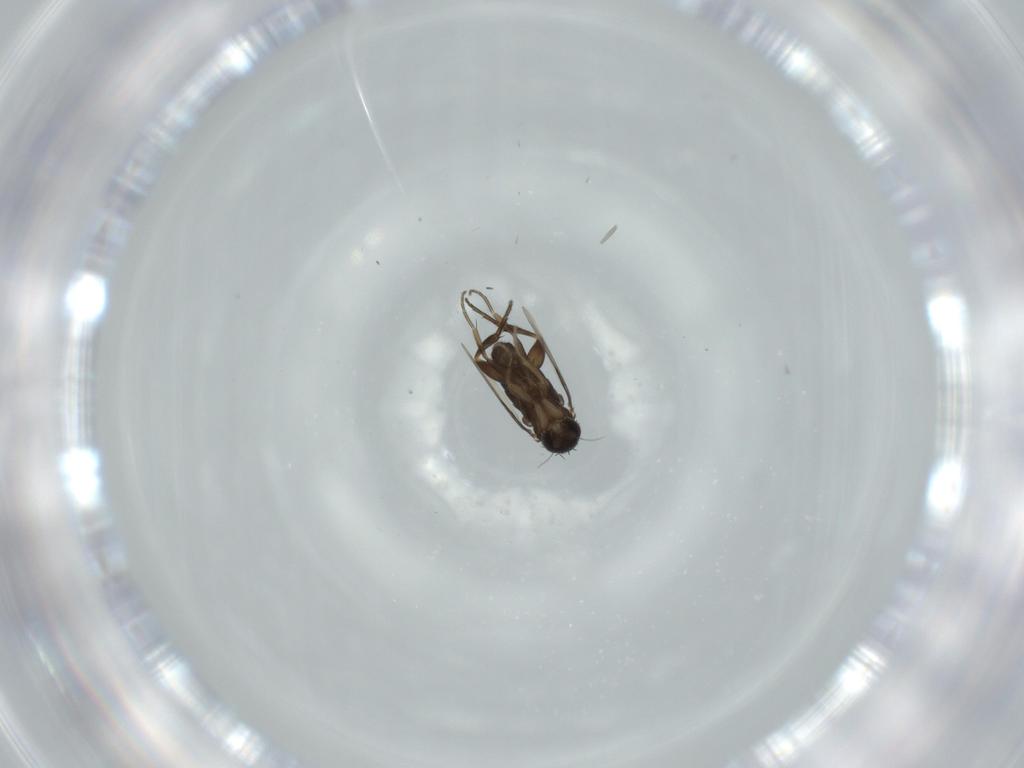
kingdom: Animalia
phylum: Arthropoda
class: Insecta
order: Diptera
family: Phoridae
